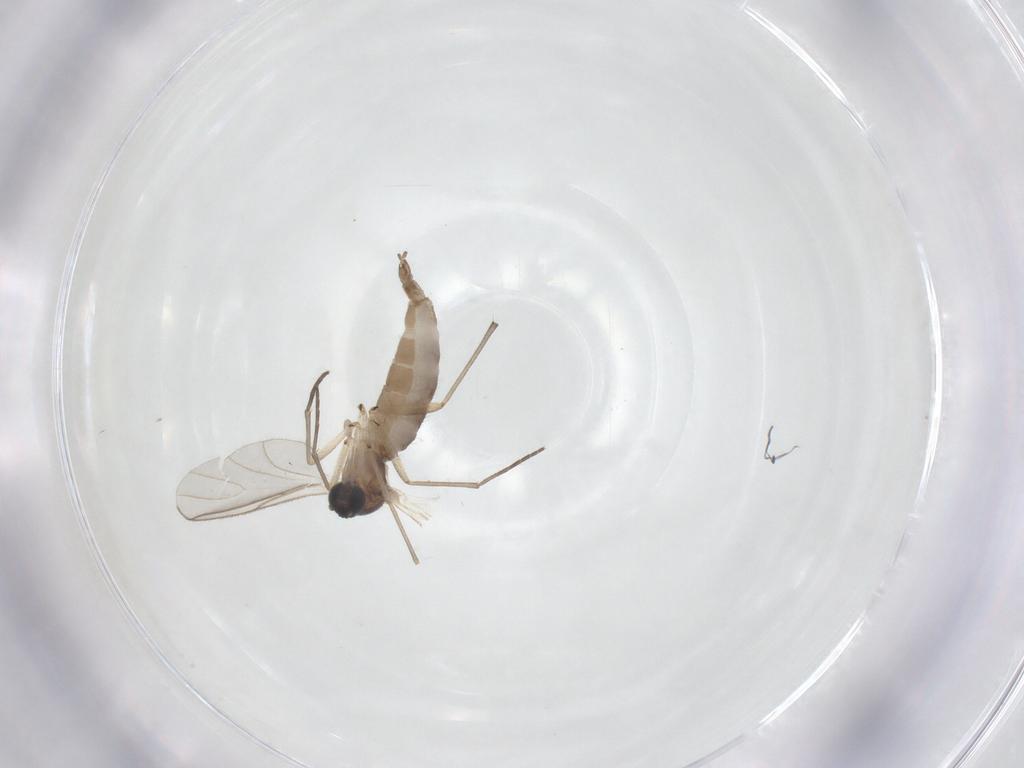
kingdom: Animalia
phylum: Arthropoda
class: Insecta
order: Diptera
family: Sciaridae
